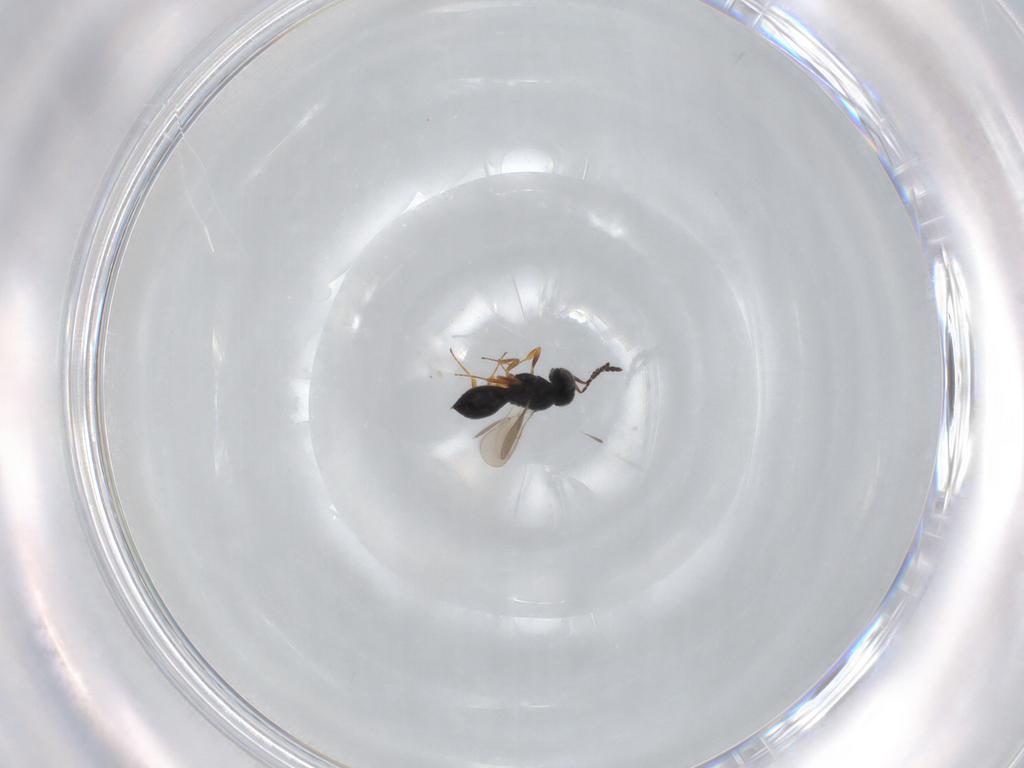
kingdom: Animalia
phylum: Arthropoda
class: Insecta
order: Hymenoptera
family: Scelionidae
